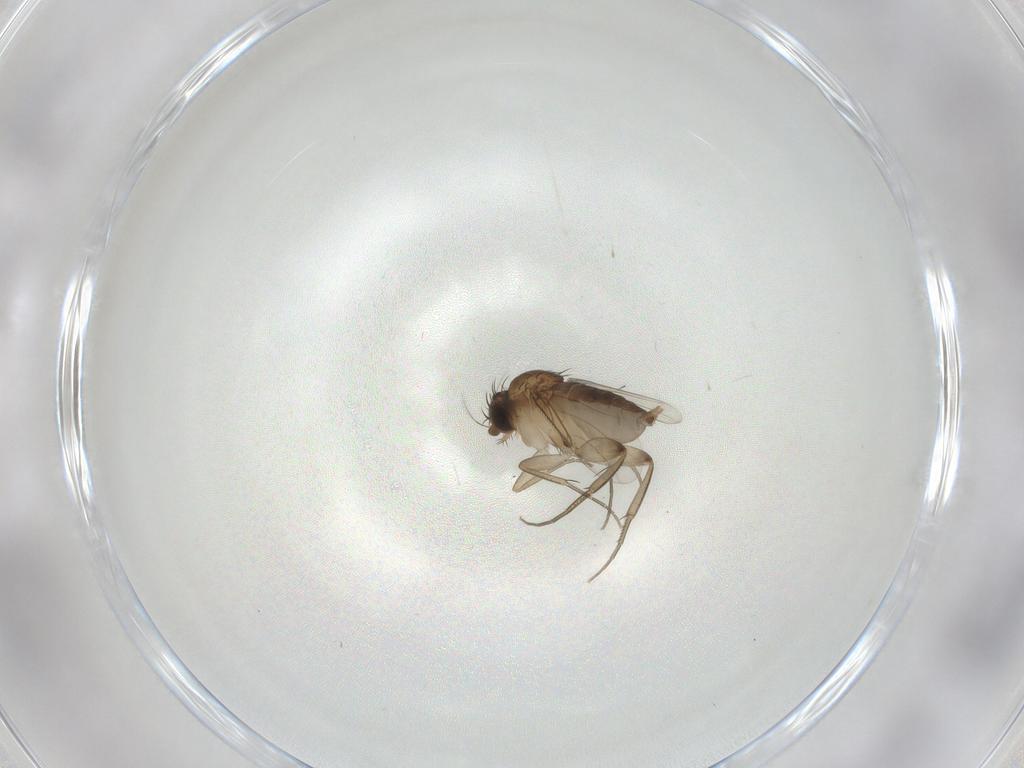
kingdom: Animalia
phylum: Arthropoda
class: Insecta
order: Diptera
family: Phoridae
